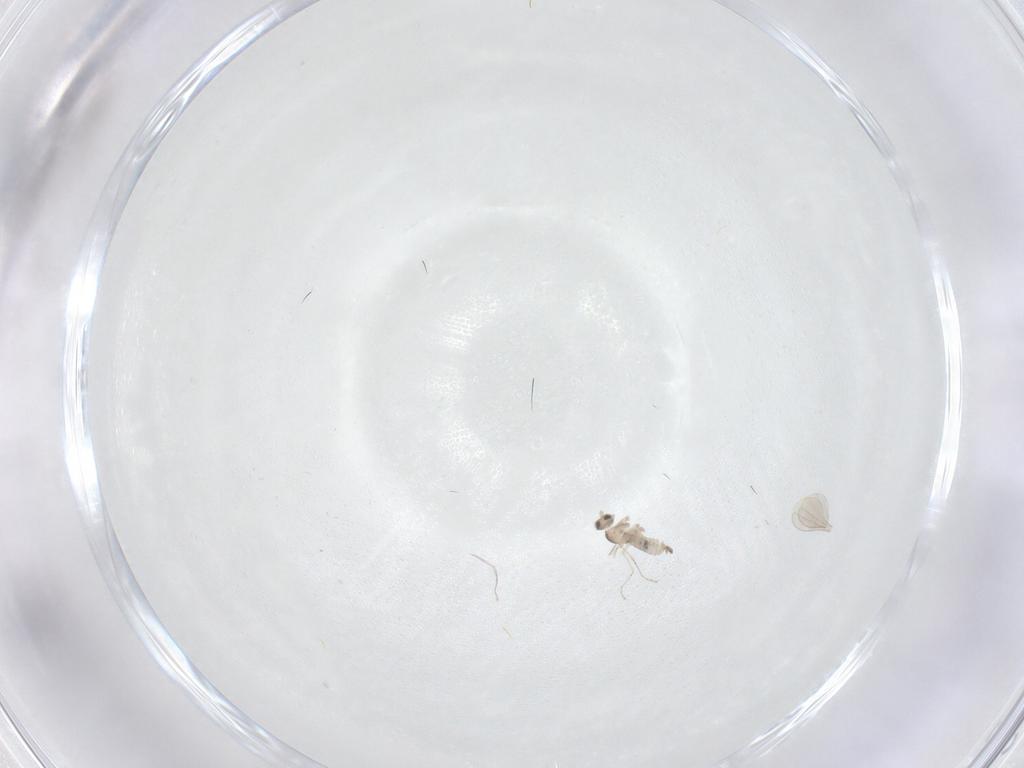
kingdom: Animalia
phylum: Arthropoda
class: Insecta
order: Diptera
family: Cecidomyiidae
